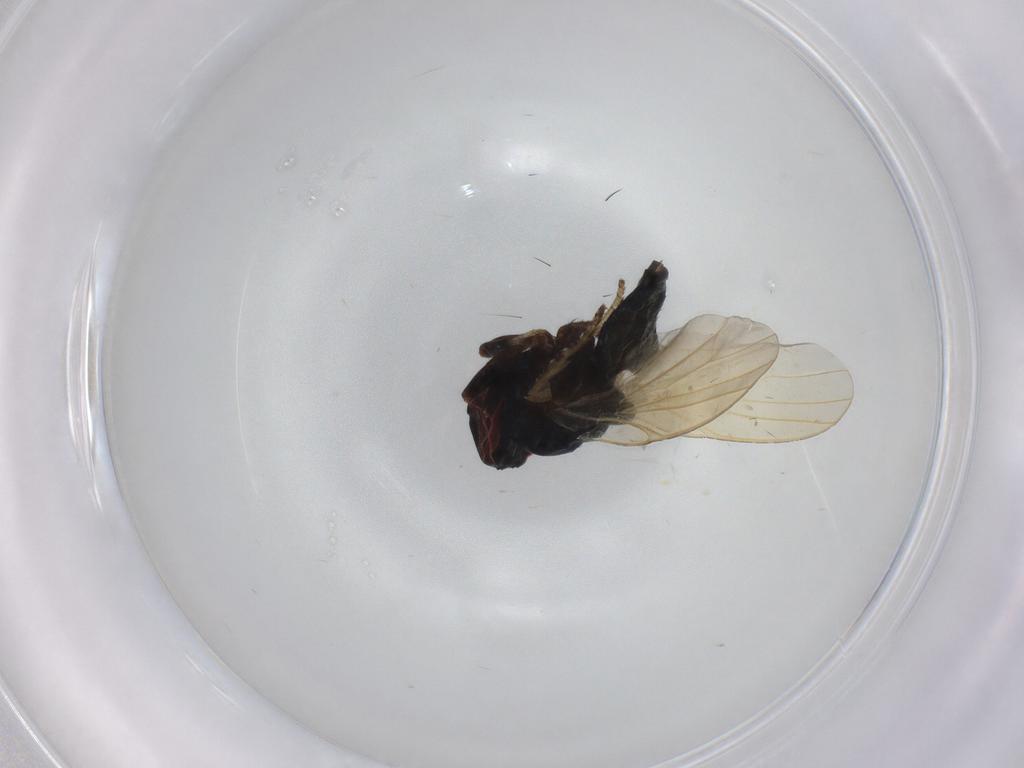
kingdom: Animalia
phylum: Arthropoda
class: Insecta
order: Diptera
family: Lonchaeidae
